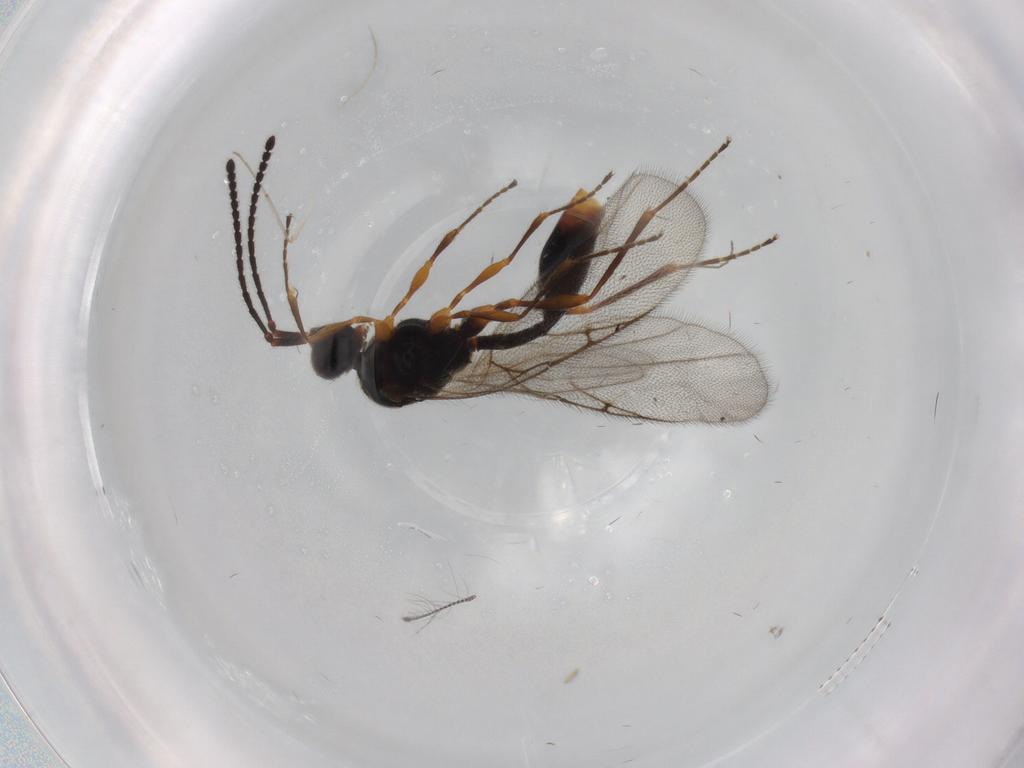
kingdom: Animalia
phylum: Arthropoda
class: Insecta
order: Hymenoptera
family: Diapriidae
